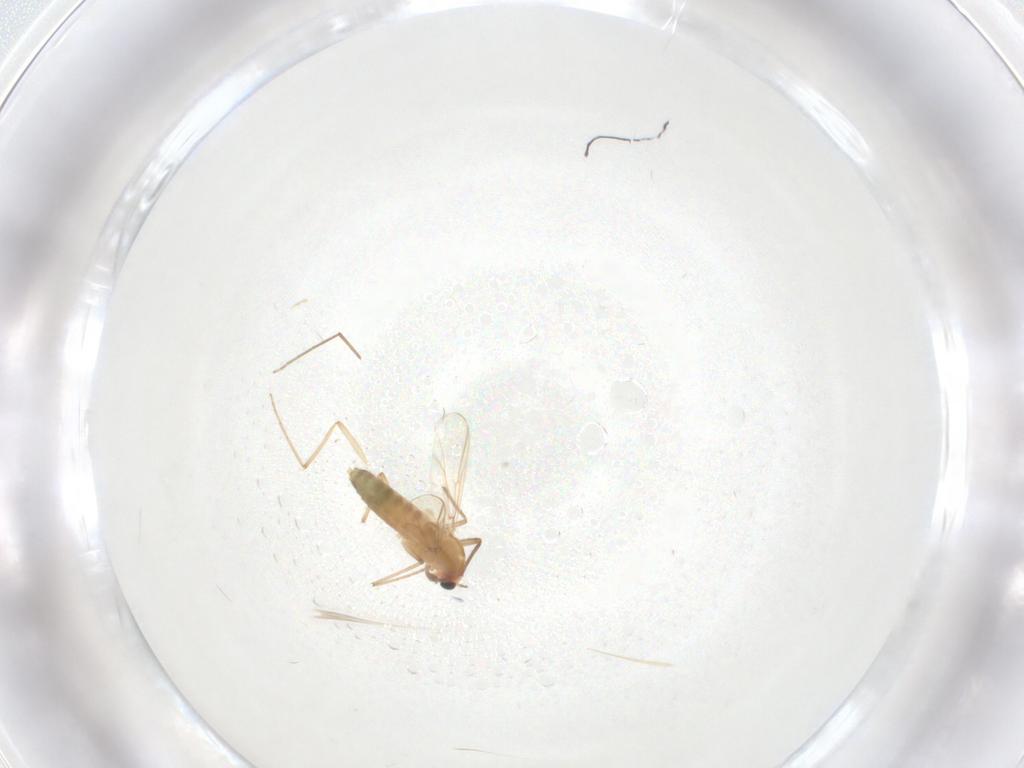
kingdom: Animalia
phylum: Arthropoda
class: Insecta
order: Diptera
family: Chironomidae
